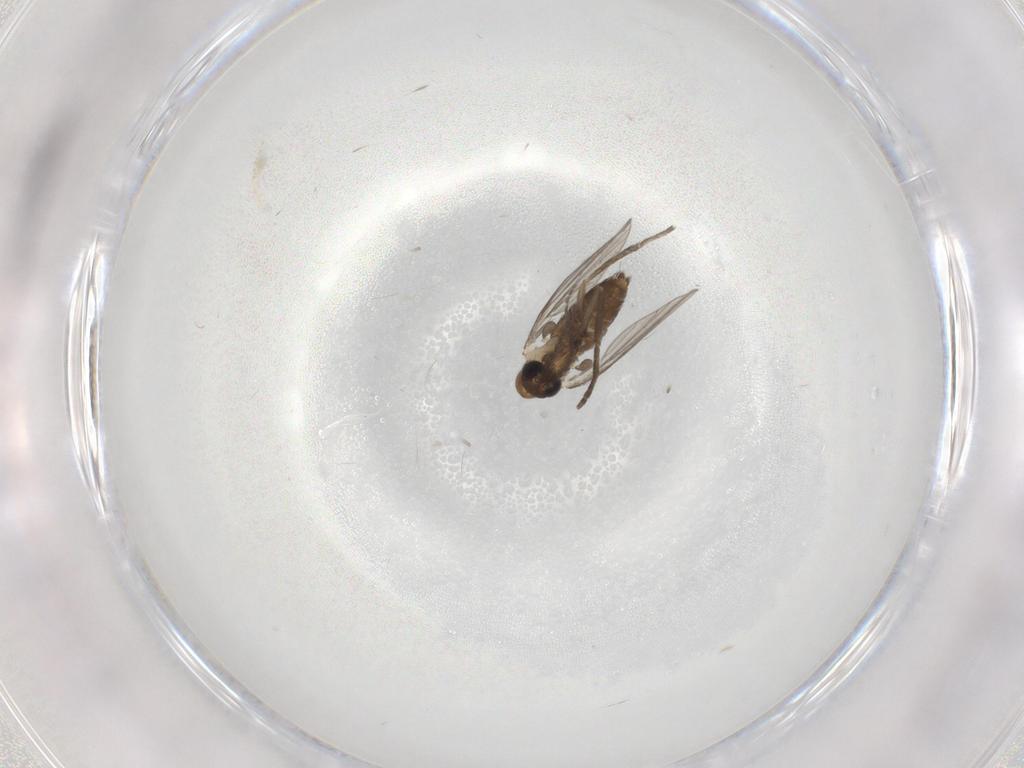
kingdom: Animalia
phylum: Arthropoda
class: Insecta
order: Diptera
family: Psychodidae
